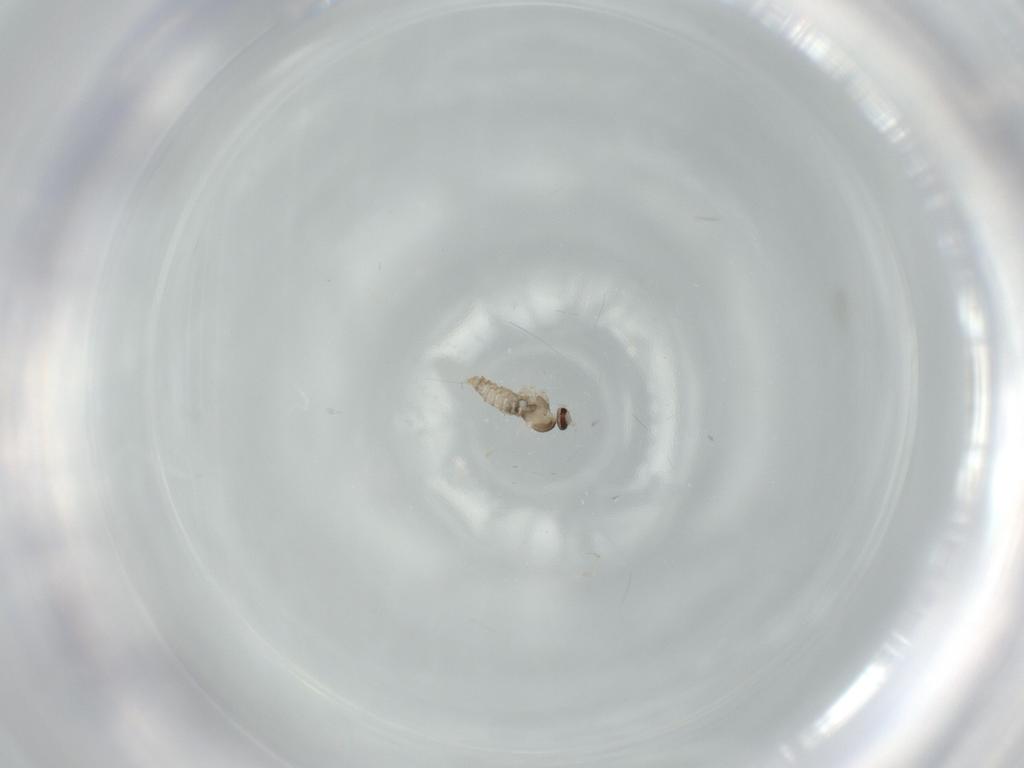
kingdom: Animalia
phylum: Arthropoda
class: Insecta
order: Diptera
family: Cecidomyiidae
